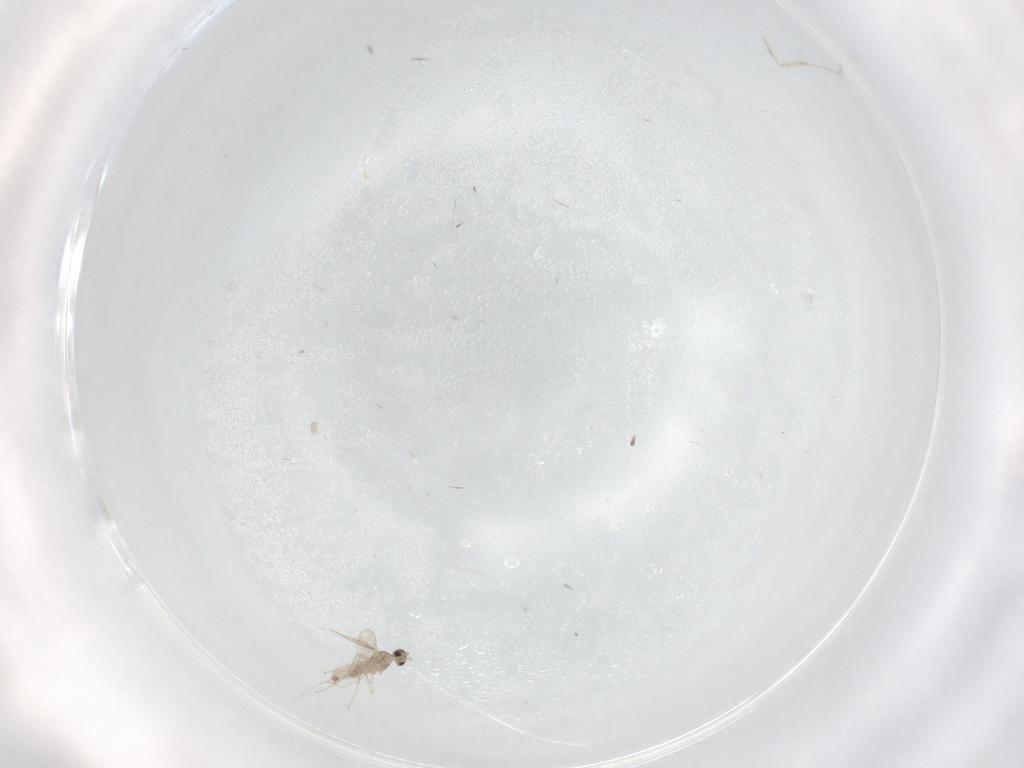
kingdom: Animalia
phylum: Arthropoda
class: Insecta
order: Diptera
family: Cecidomyiidae
